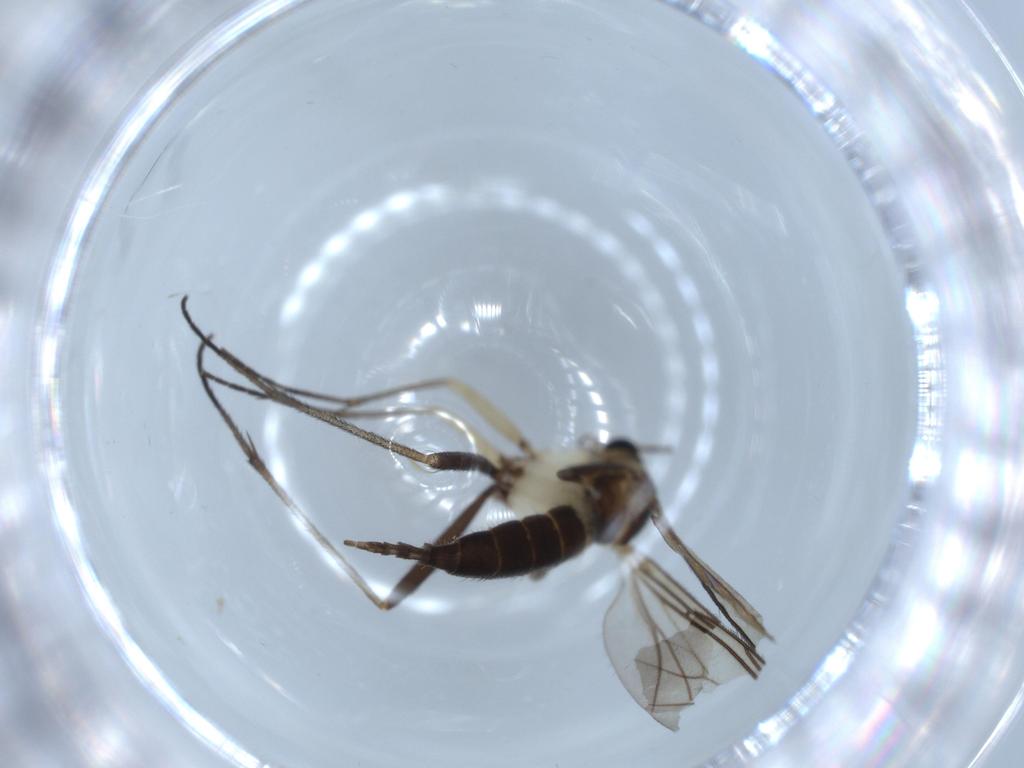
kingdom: Animalia
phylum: Arthropoda
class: Insecta
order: Diptera
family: Sciaridae
